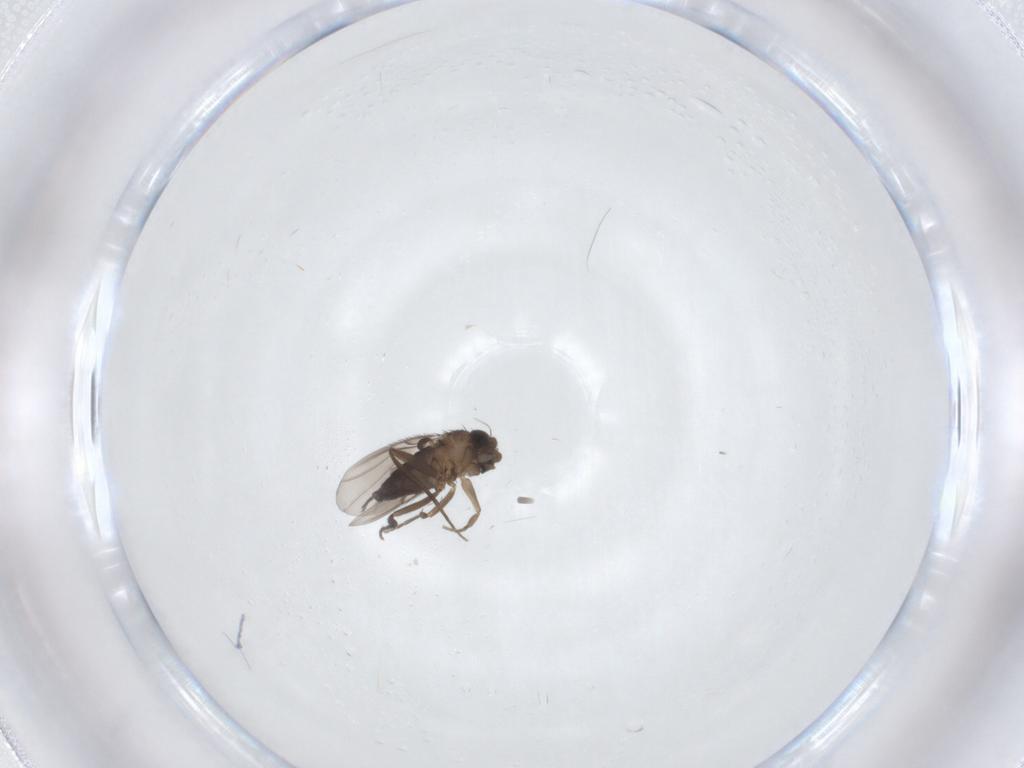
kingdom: Animalia
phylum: Arthropoda
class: Insecta
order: Diptera
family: Phoridae
